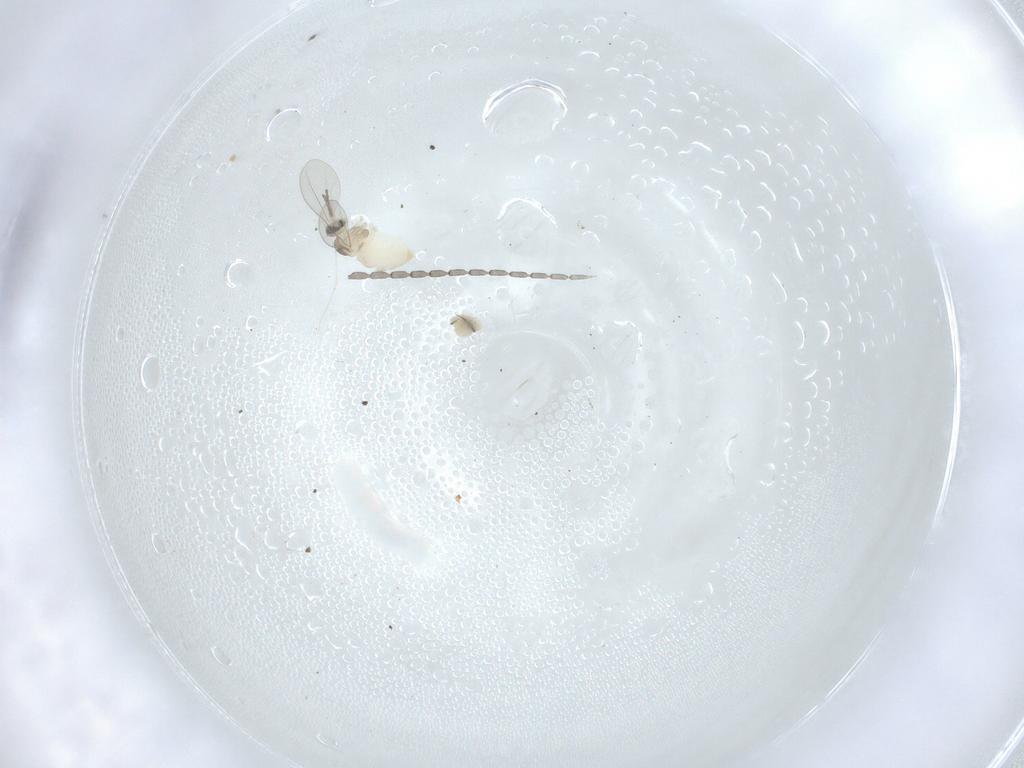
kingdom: Animalia
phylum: Arthropoda
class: Insecta
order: Diptera
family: Cecidomyiidae
